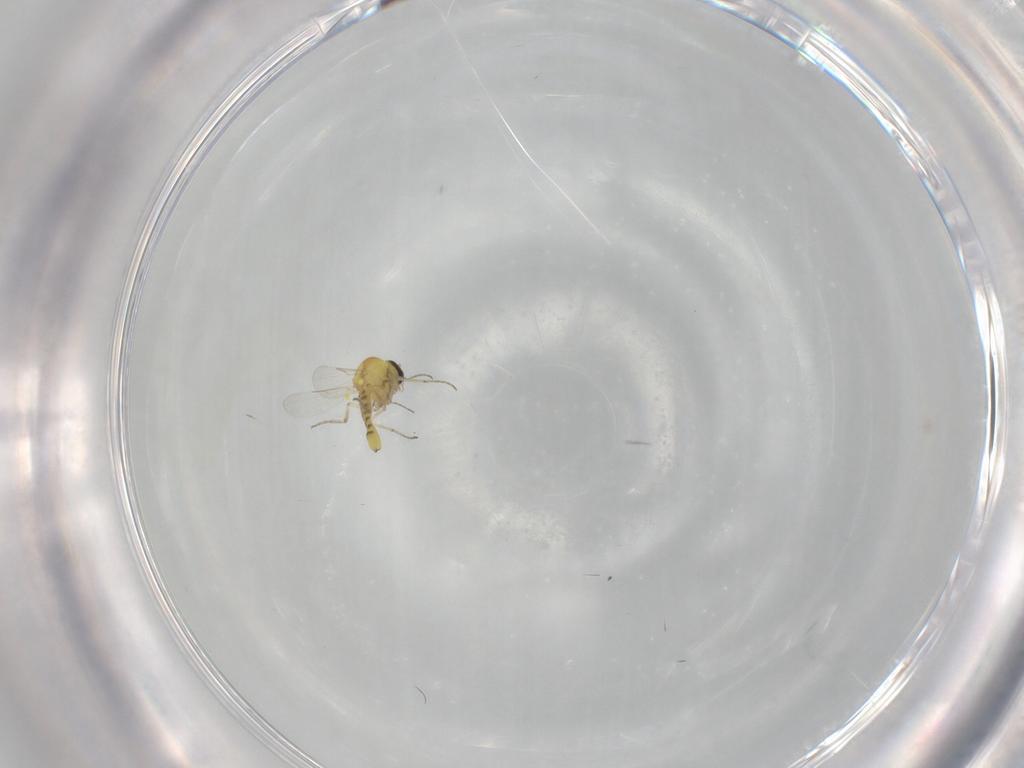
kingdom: Animalia
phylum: Arthropoda
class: Insecta
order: Diptera
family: Ceratopogonidae
